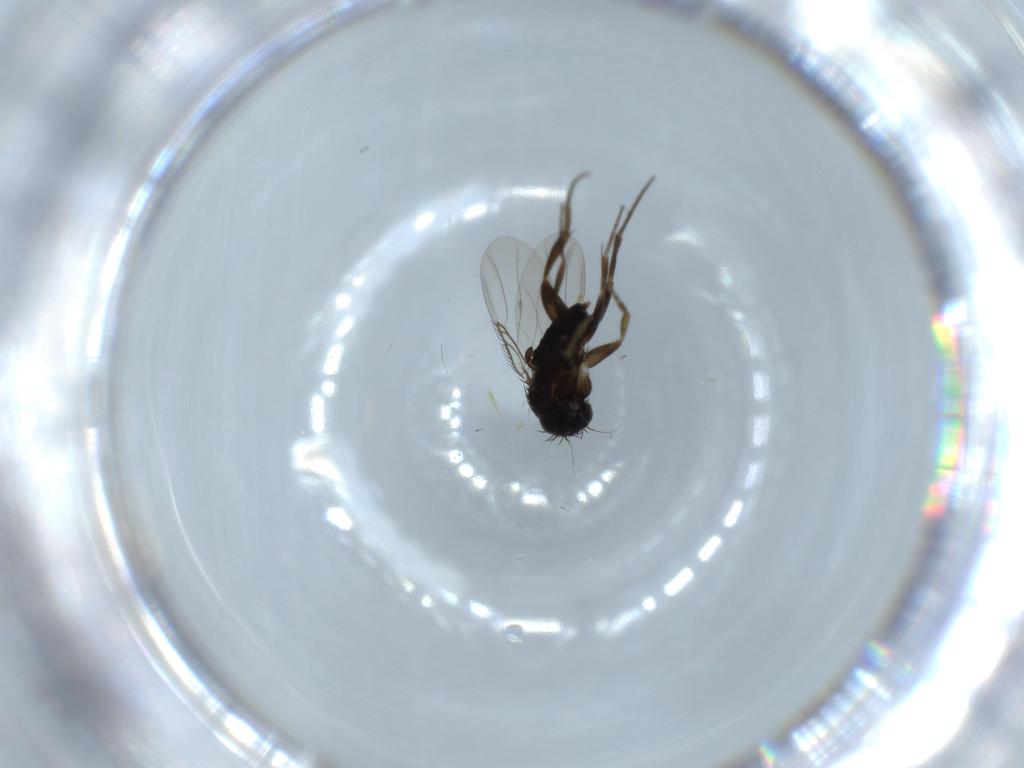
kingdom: Animalia
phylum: Arthropoda
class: Insecta
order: Diptera
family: Phoridae
